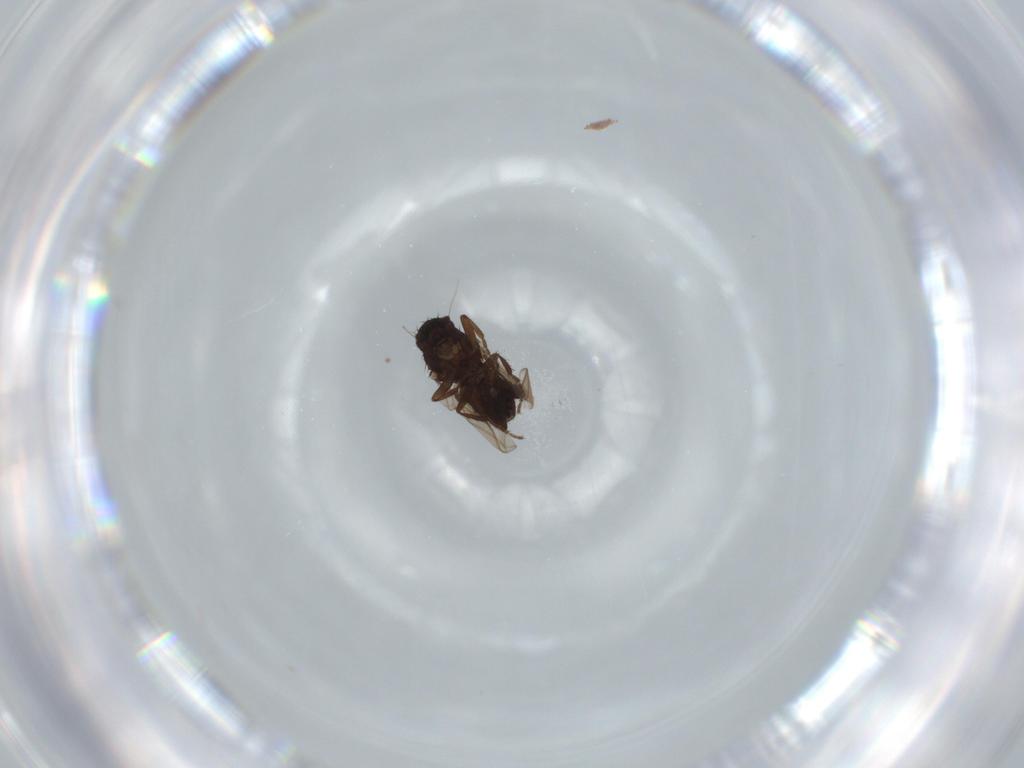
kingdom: Animalia
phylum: Arthropoda
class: Insecta
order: Diptera
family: Sphaeroceridae
